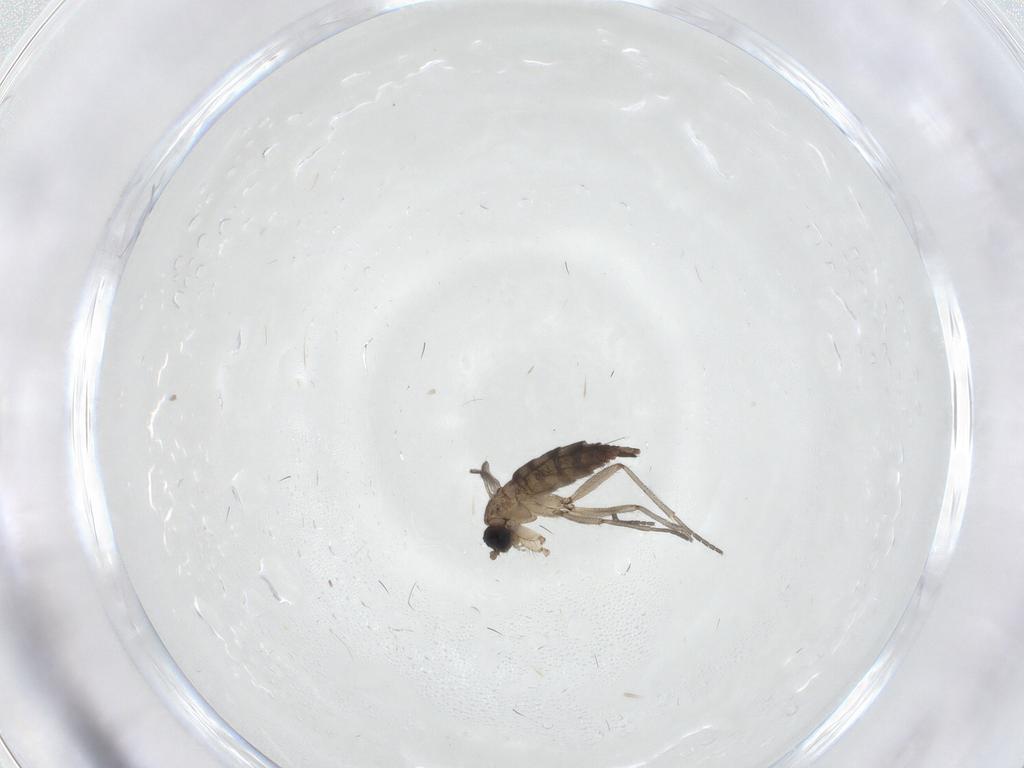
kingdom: Animalia
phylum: Arthropoda
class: Insecta
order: Diptera
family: Sciaridae
